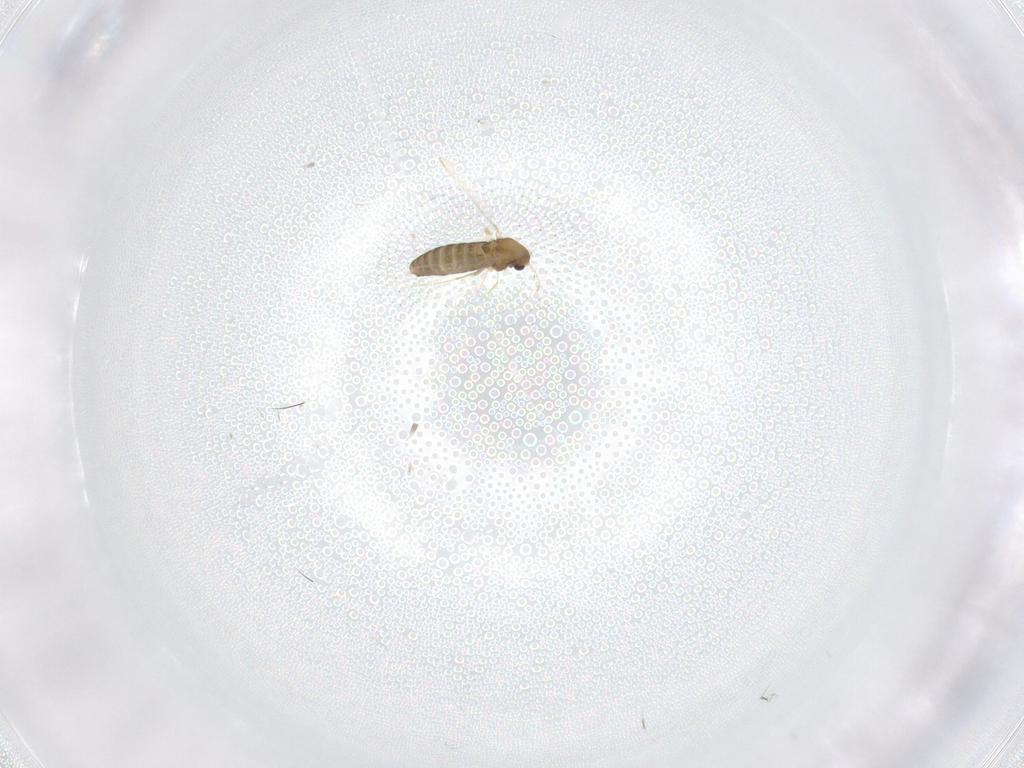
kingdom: Animalia
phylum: Arthropoda
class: Insecta
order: Diptera
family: Chironomidae
